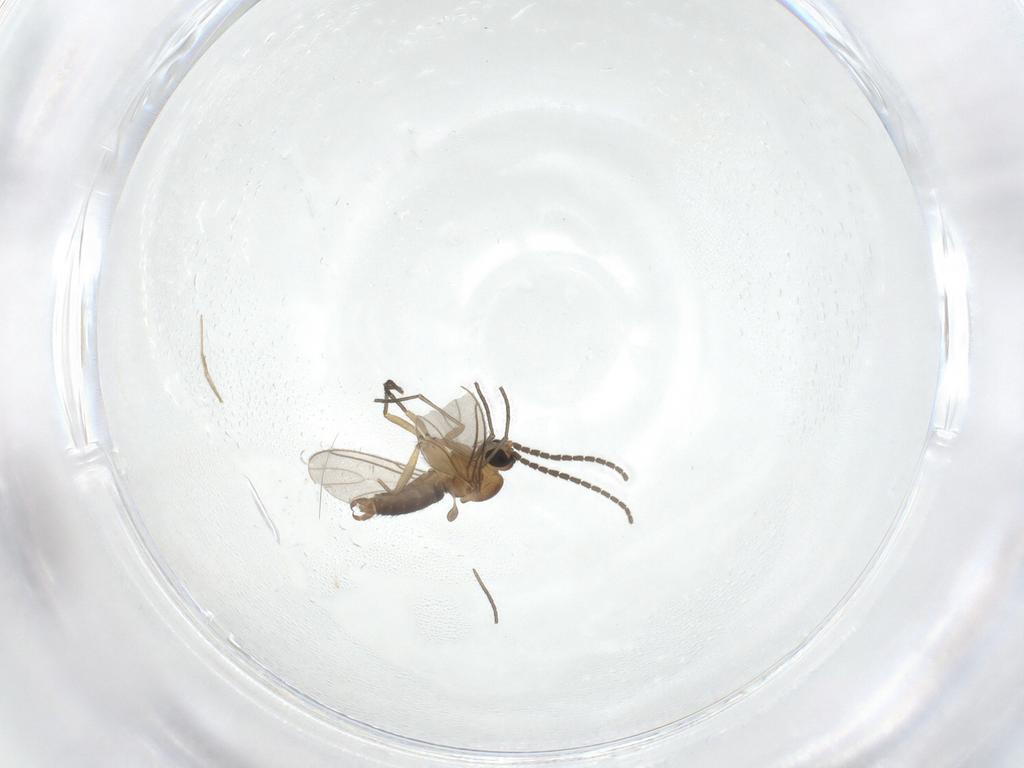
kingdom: Animalia
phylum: Arthropoda
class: Insecta
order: Diptera
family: Sciaridae
